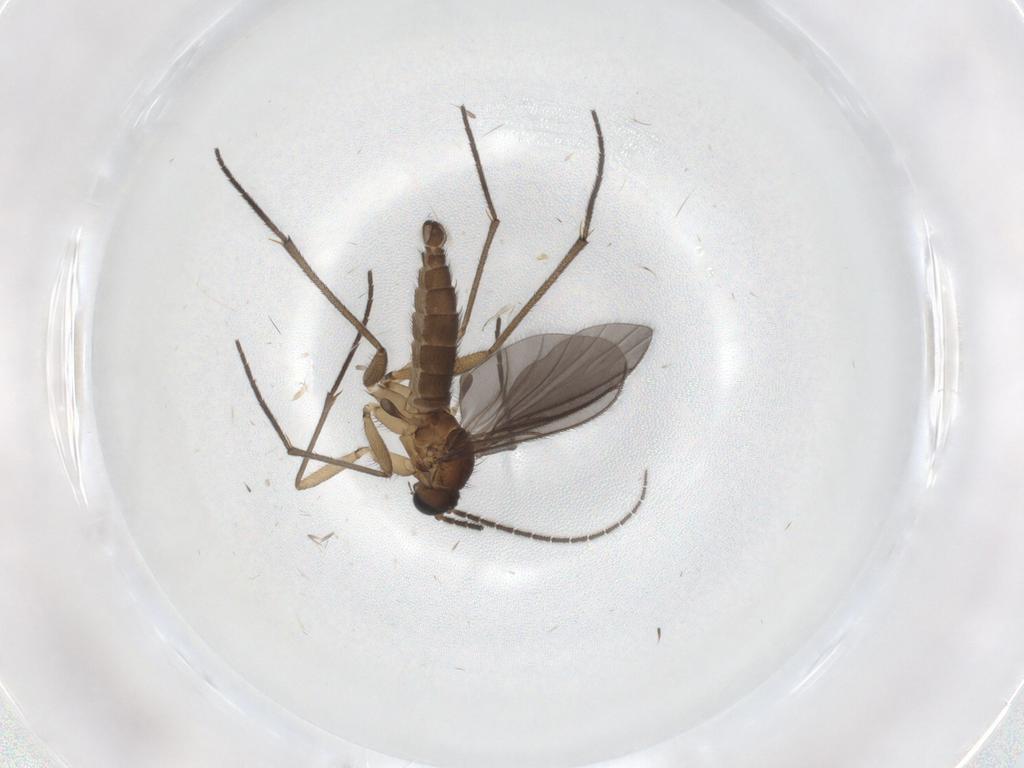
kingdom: Animalia
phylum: Arthropoda
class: Insecta
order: Diptera
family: Sciaridae
